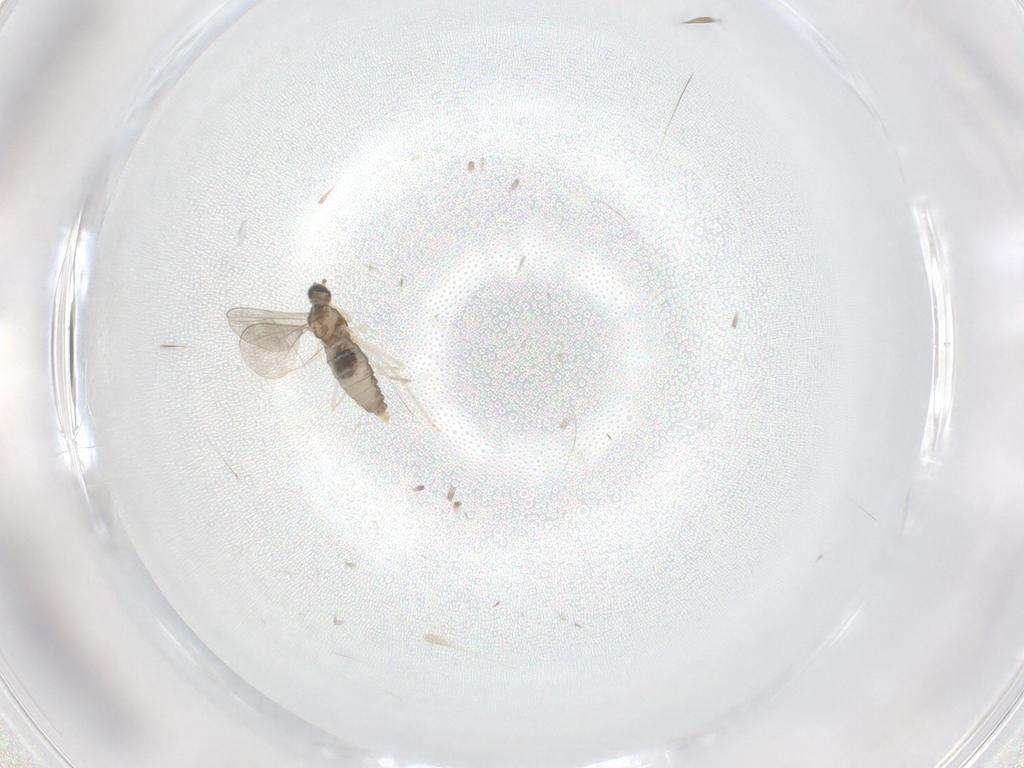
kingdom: Animalia
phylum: Arthropoda
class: Insecta
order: Diptera
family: Cecidomyiidae
